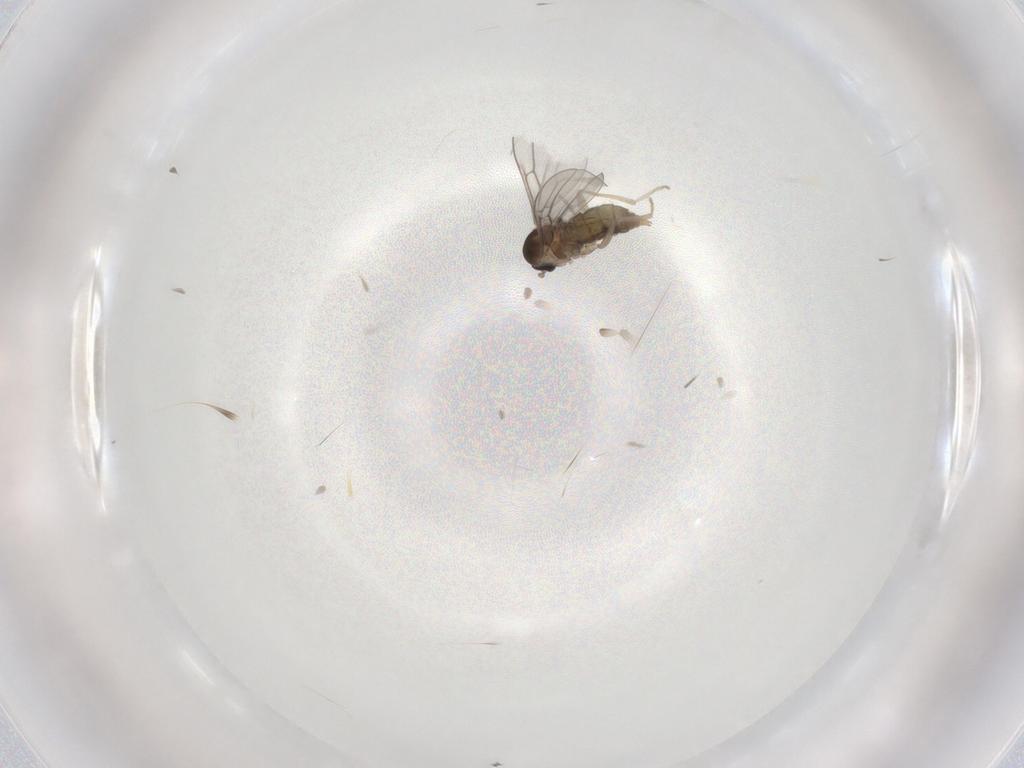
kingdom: Animalia
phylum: Arthropoda
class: Insecta
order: Diptera
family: Cecidomyiidae
